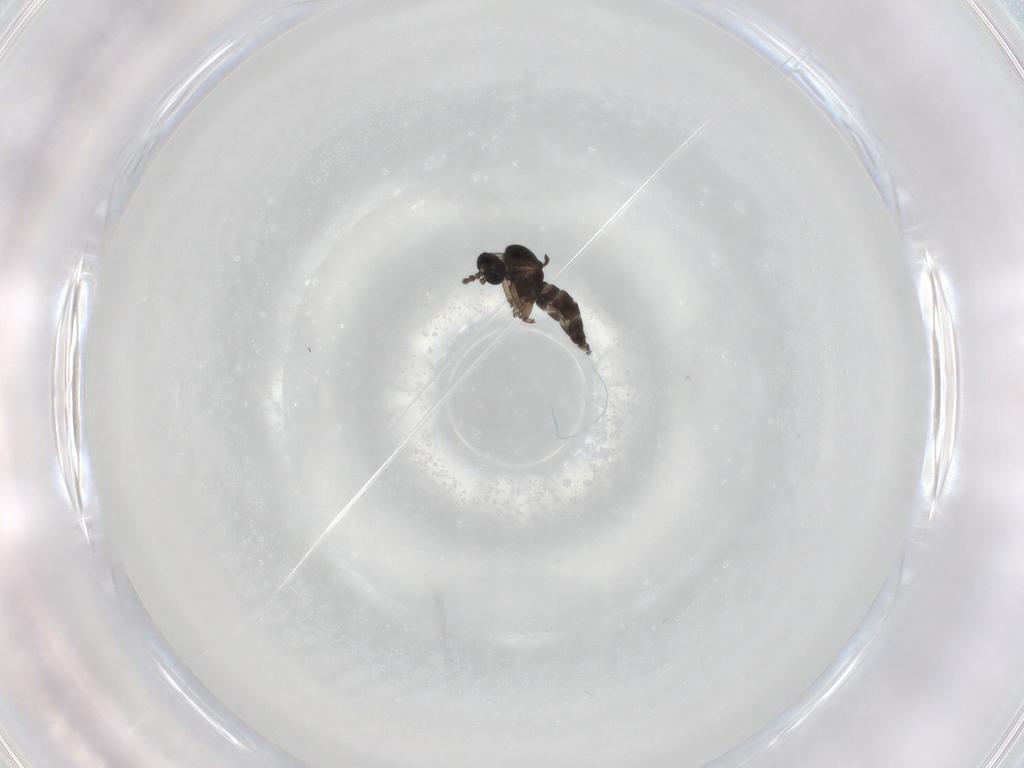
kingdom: Animalia
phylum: Arthropoda
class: Insecta
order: Diptera
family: Sciaridae
